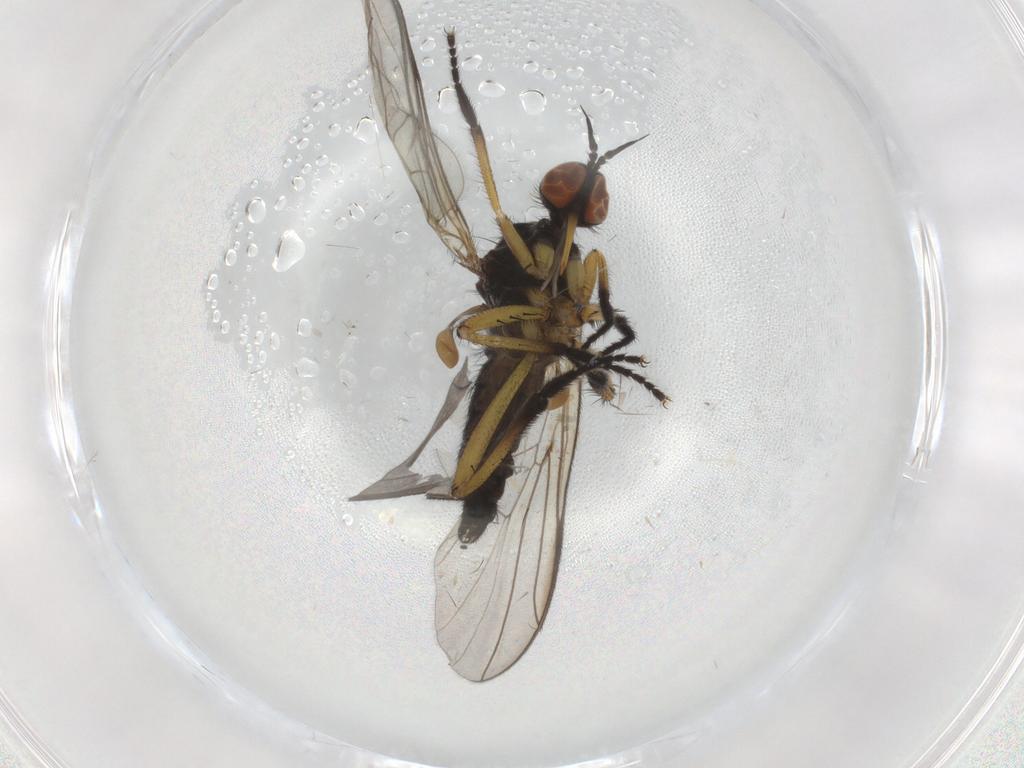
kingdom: Animalia
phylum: Arthropoda
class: Insecta
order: Diptera
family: Empididae
